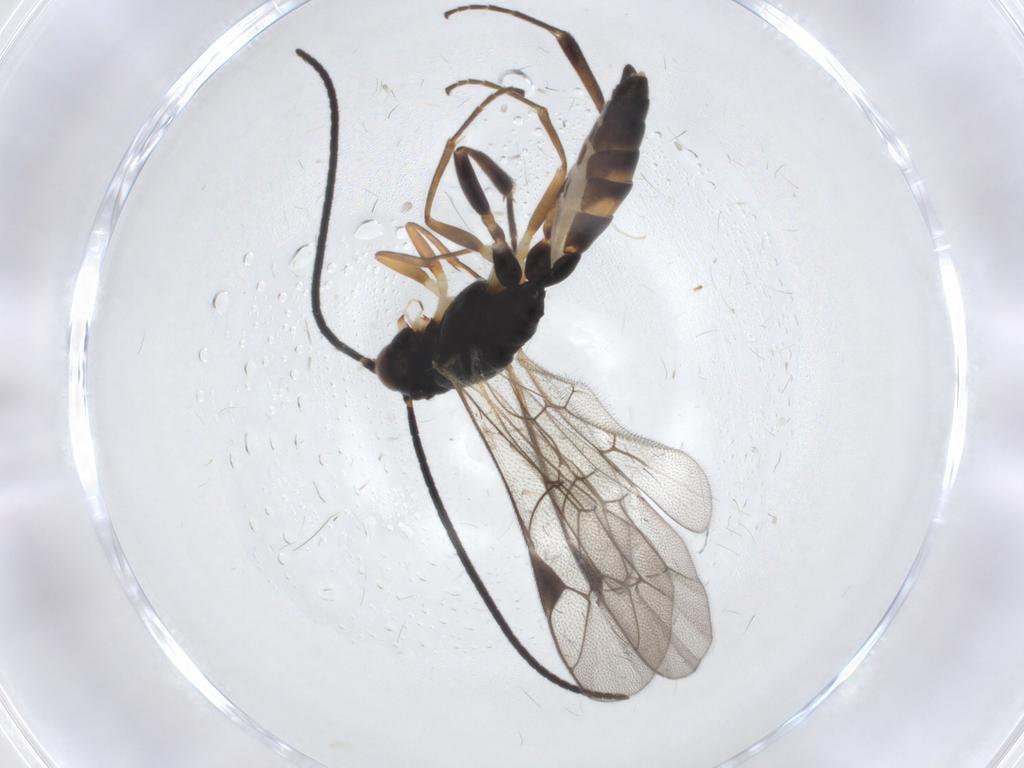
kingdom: Animalia
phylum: Arthropoda
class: Insecta
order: Hymenoptera
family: Ichneumonidae
